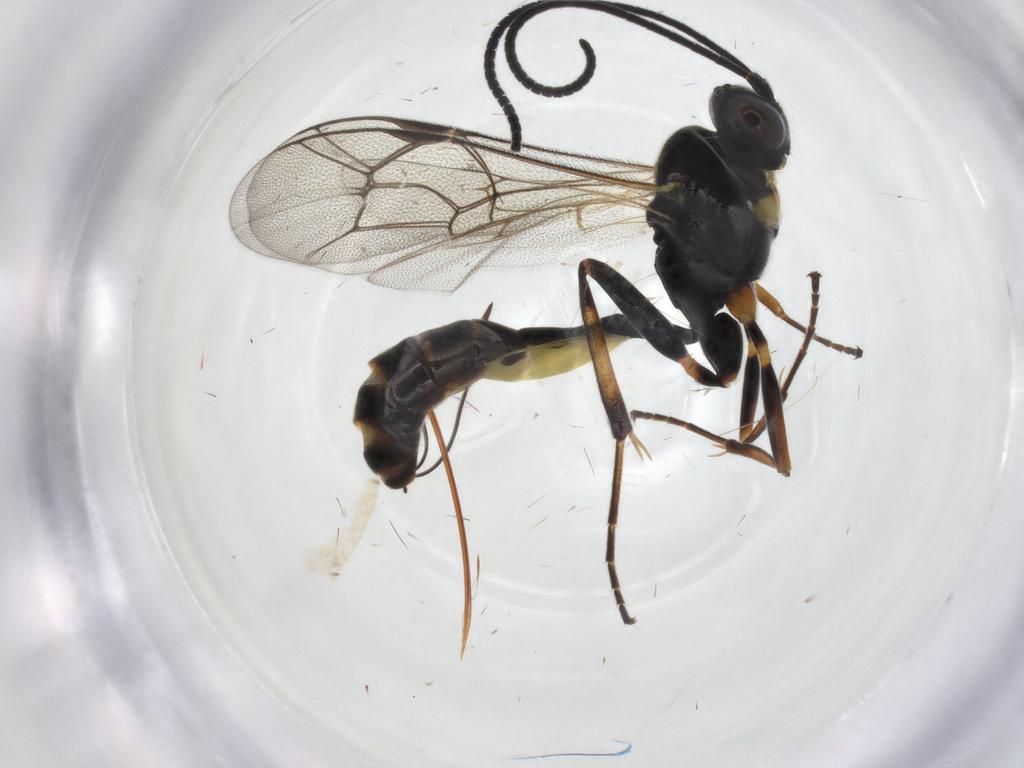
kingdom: Animalia
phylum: Arthropoda
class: Insecta
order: Hymenoptera
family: Ichneumonidae
